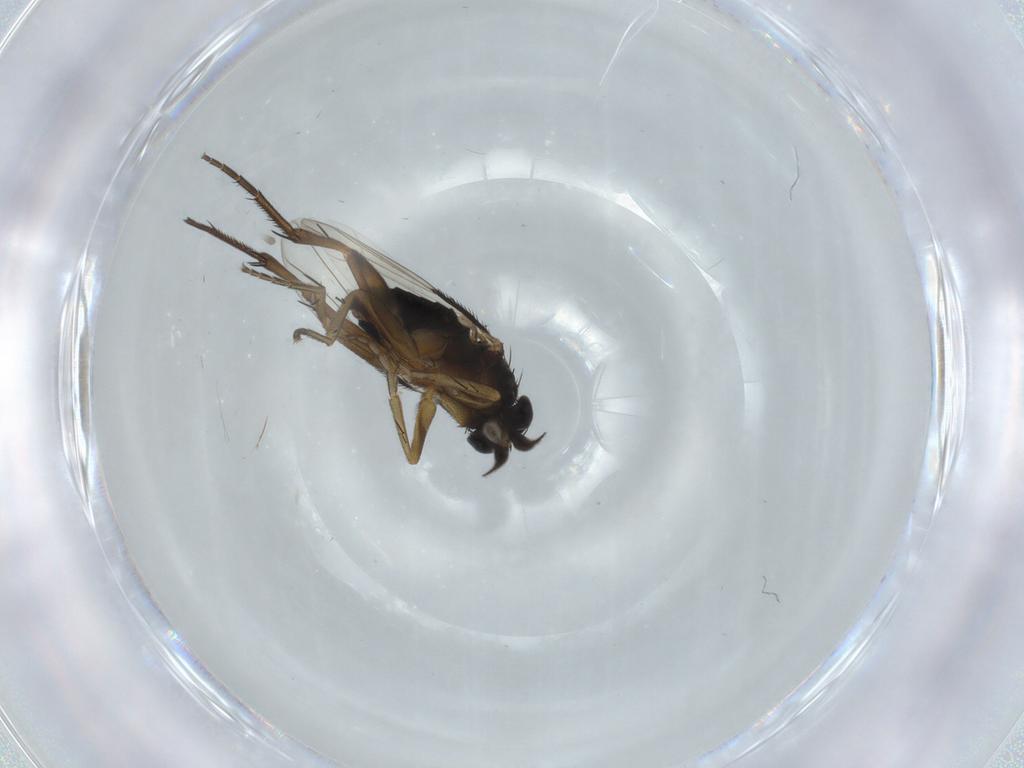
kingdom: Animalia
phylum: Arthropoda
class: Insecta
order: Diptera
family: Phoridae
